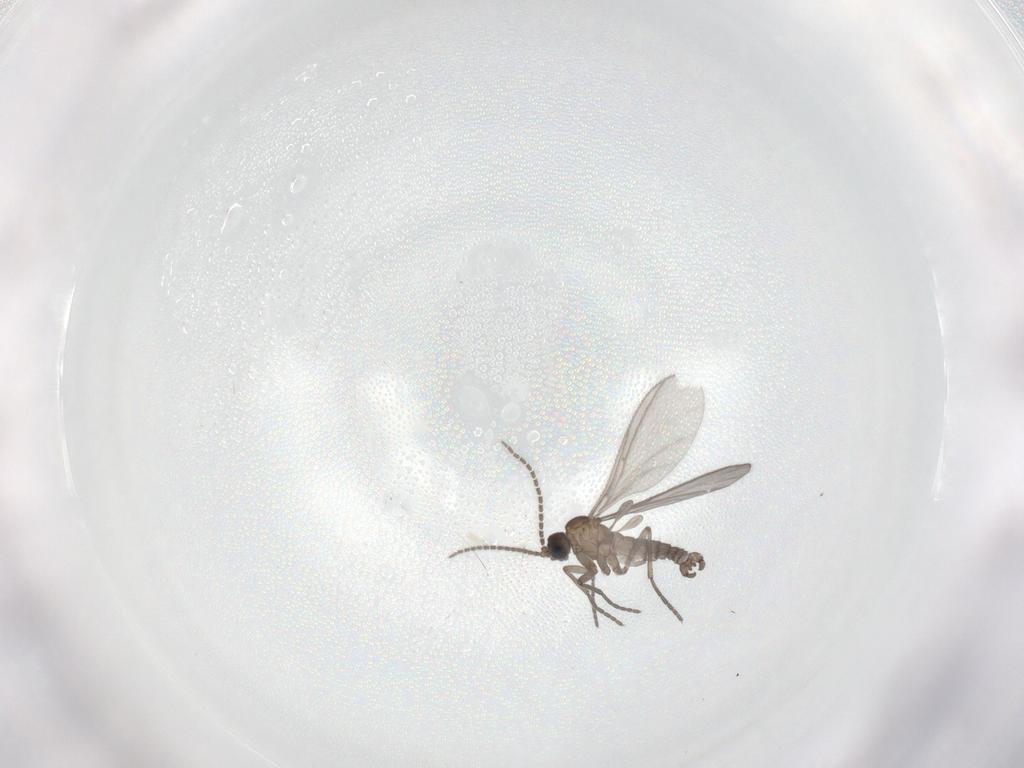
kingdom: Animalia
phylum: Arthropoda
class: Insecta
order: Diptera
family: Sciaridae
